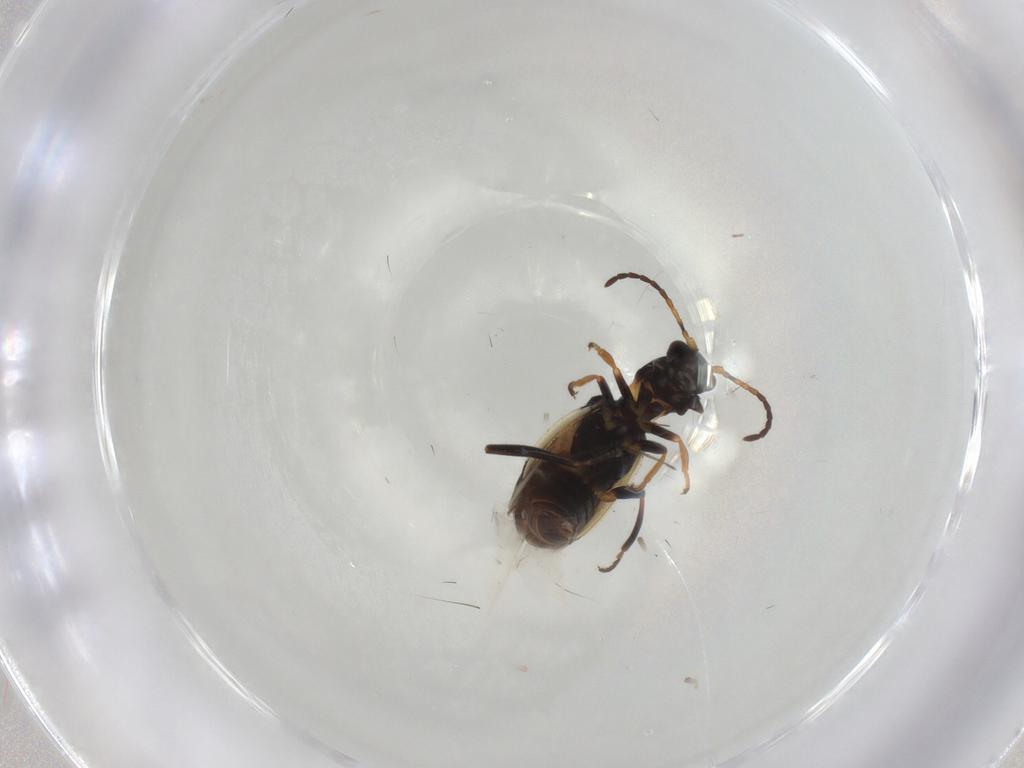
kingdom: Animalia
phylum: Arthropoda
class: Insecta
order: Coleoptera
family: Melyridae
